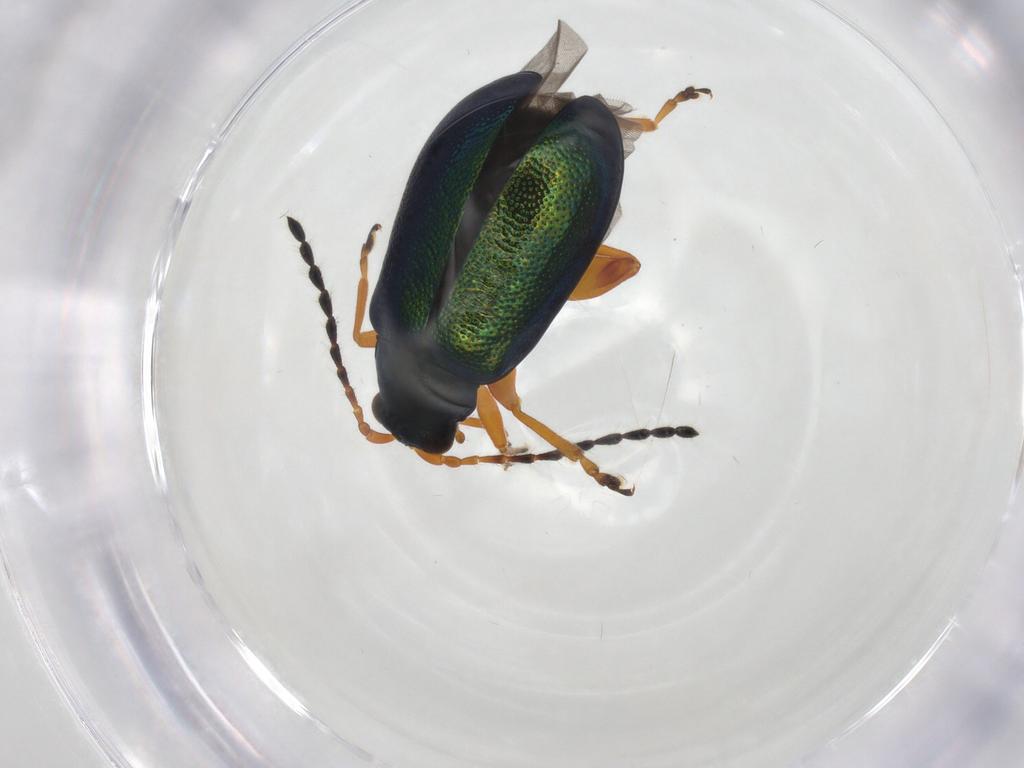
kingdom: Animalia
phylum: Arthropoda
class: Insecta
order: Coleoptera
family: Chrysomelidae
